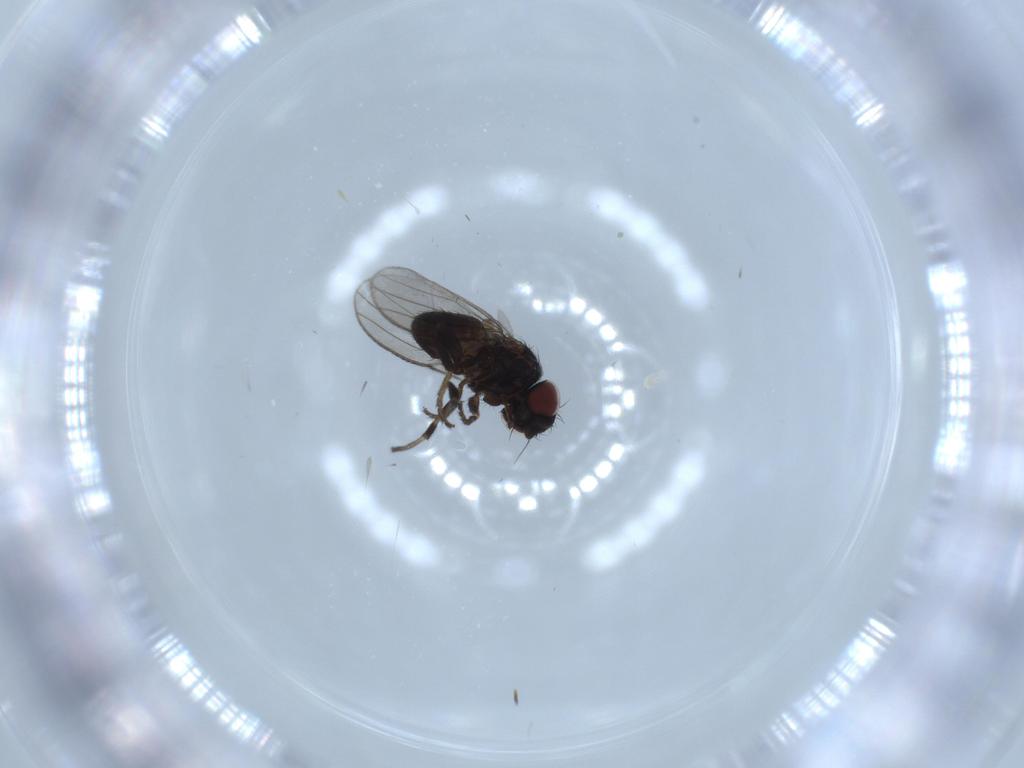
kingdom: Animalia
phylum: Arthropoda
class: Insecta
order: Diptera
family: Milichiidae
